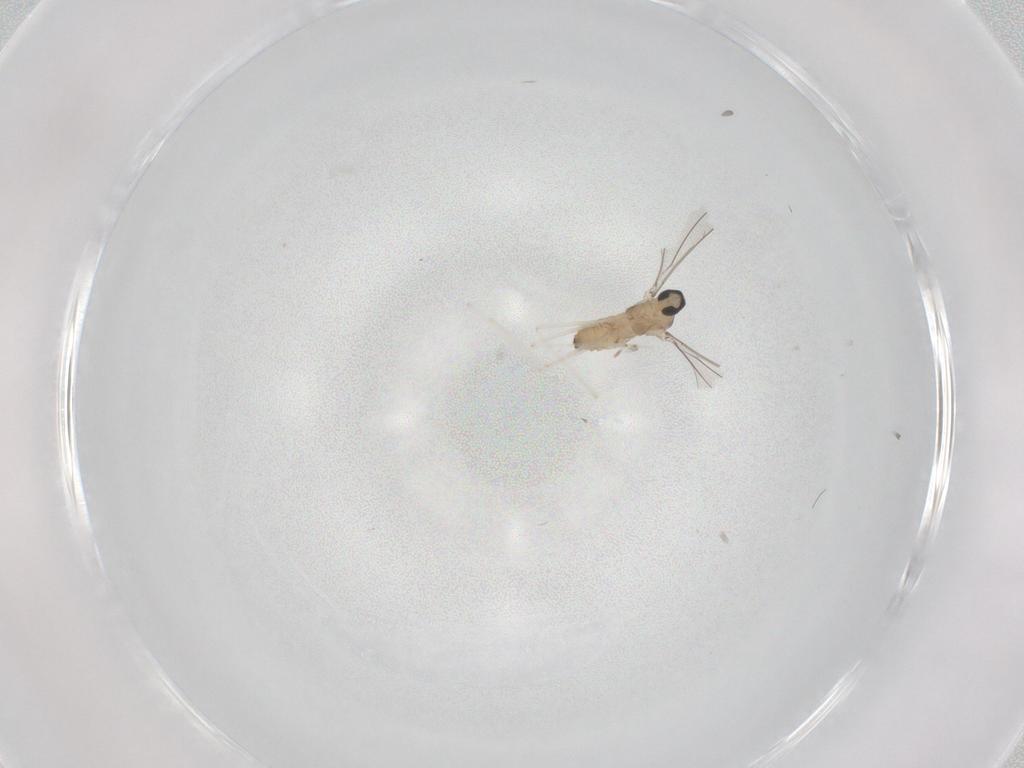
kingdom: Animalia
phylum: Arthropoda
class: Insecta
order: Diptera
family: Cecidomyiidae
